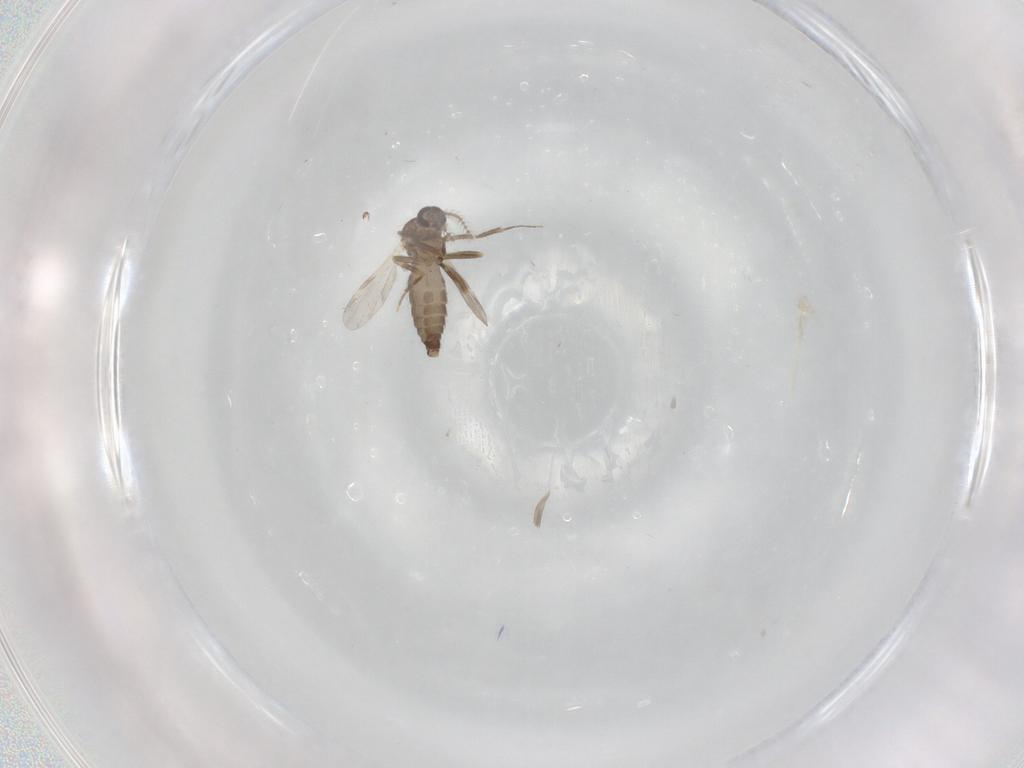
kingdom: Animalia
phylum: Arthropoda
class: Insecta
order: Diptera
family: Ceratopogonidae
